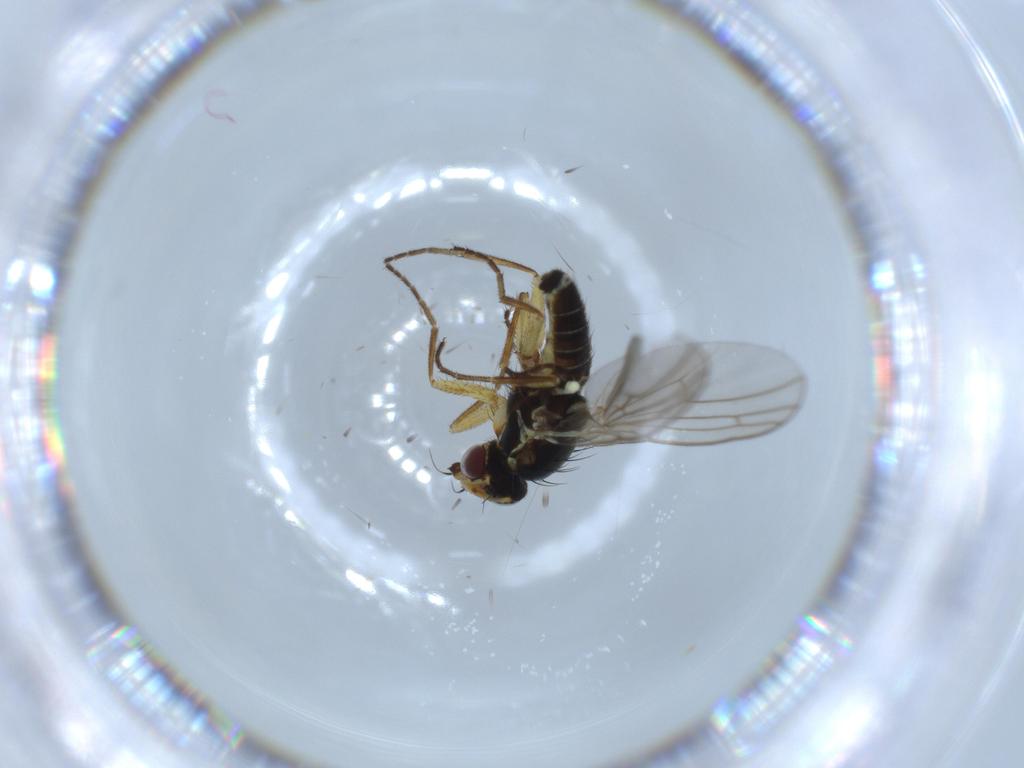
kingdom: Animalia
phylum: Arthropoda
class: Insecta
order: Diptera
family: Agromyzidae
